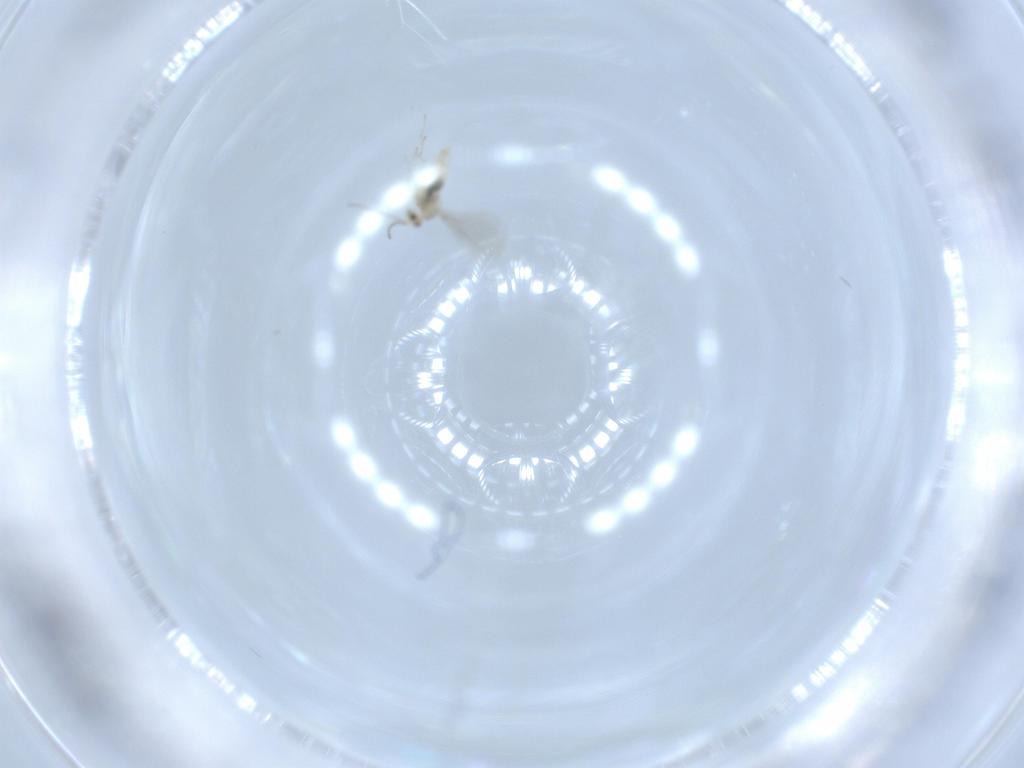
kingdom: Animalia
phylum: Arthropoda
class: Insecta
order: Diptera
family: Cecidomyiidae
